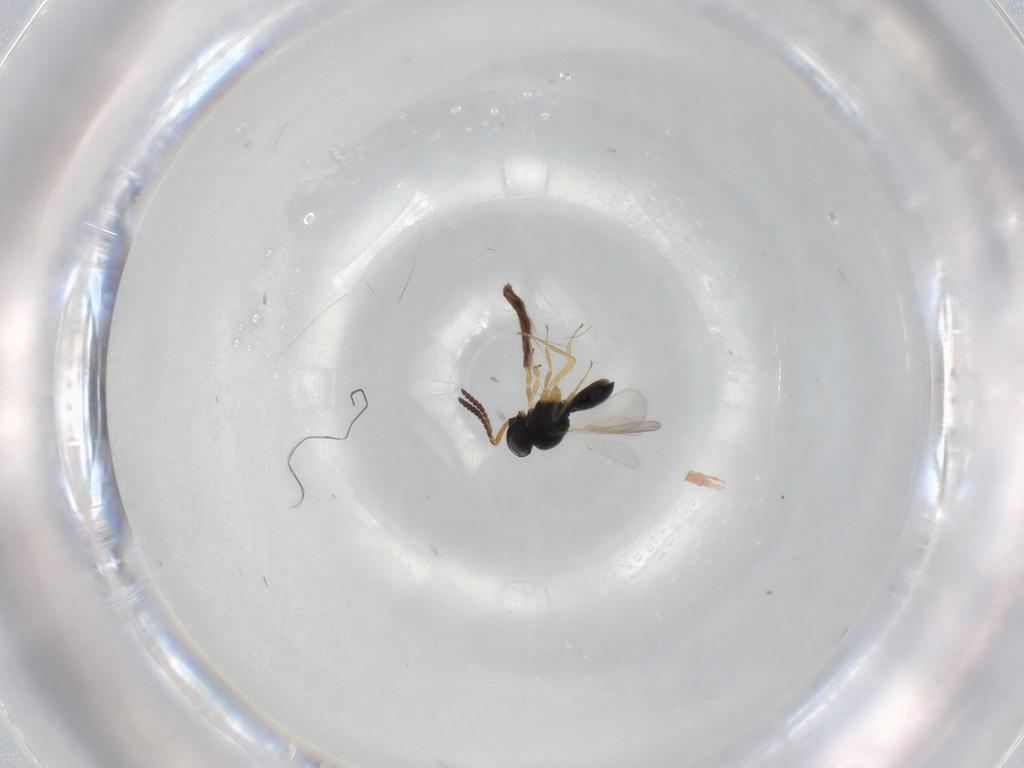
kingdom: Animalia
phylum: Arthropoda
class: Insecta
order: Hymenoptera
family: Scelionidae
